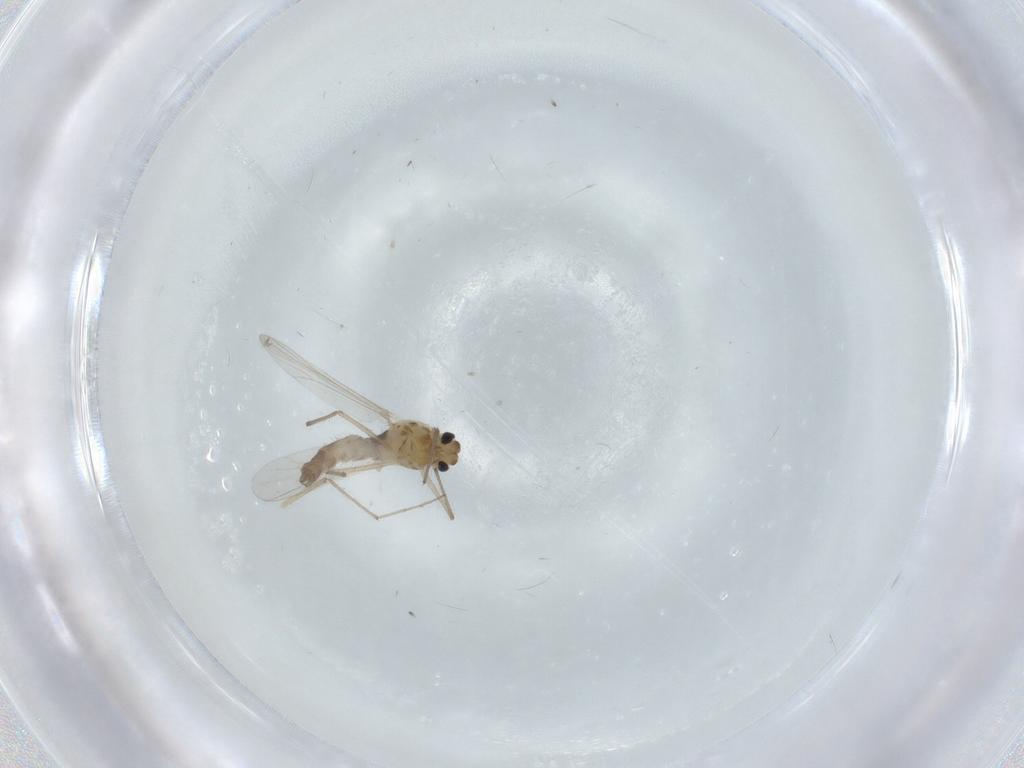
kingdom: Animalia
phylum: Arthropoda
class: Insecta
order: Diptera
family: Chironomidae
